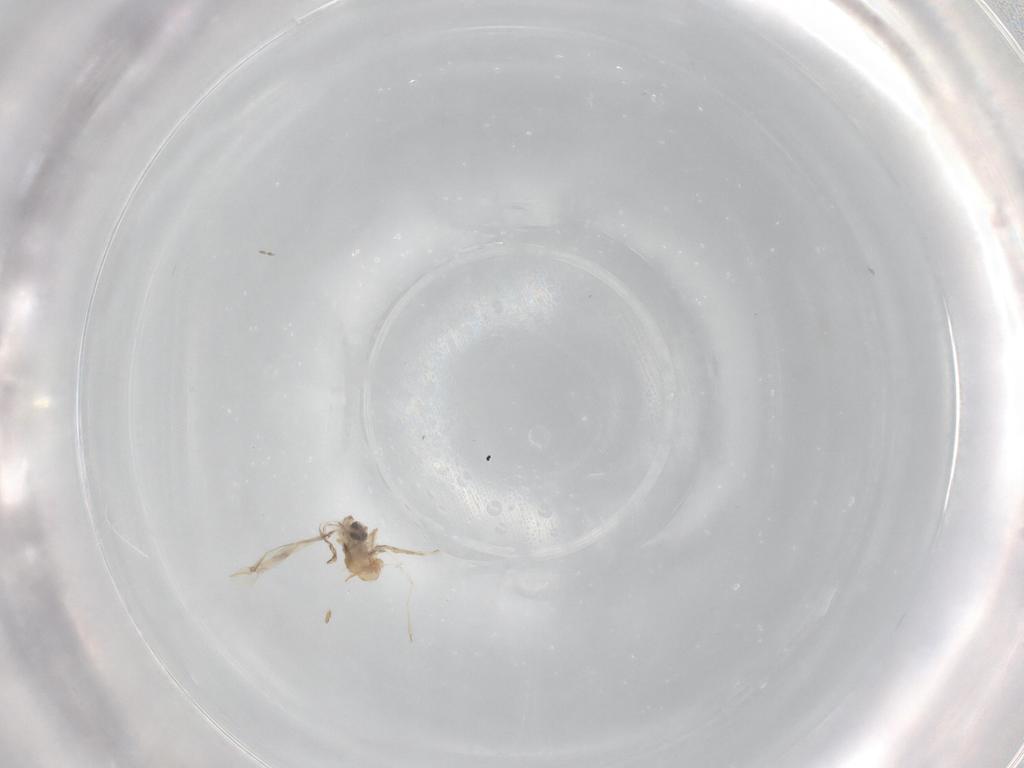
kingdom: Animalia
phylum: Arthropoda
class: Insecta
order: Diptera
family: Cecidomyiidae
